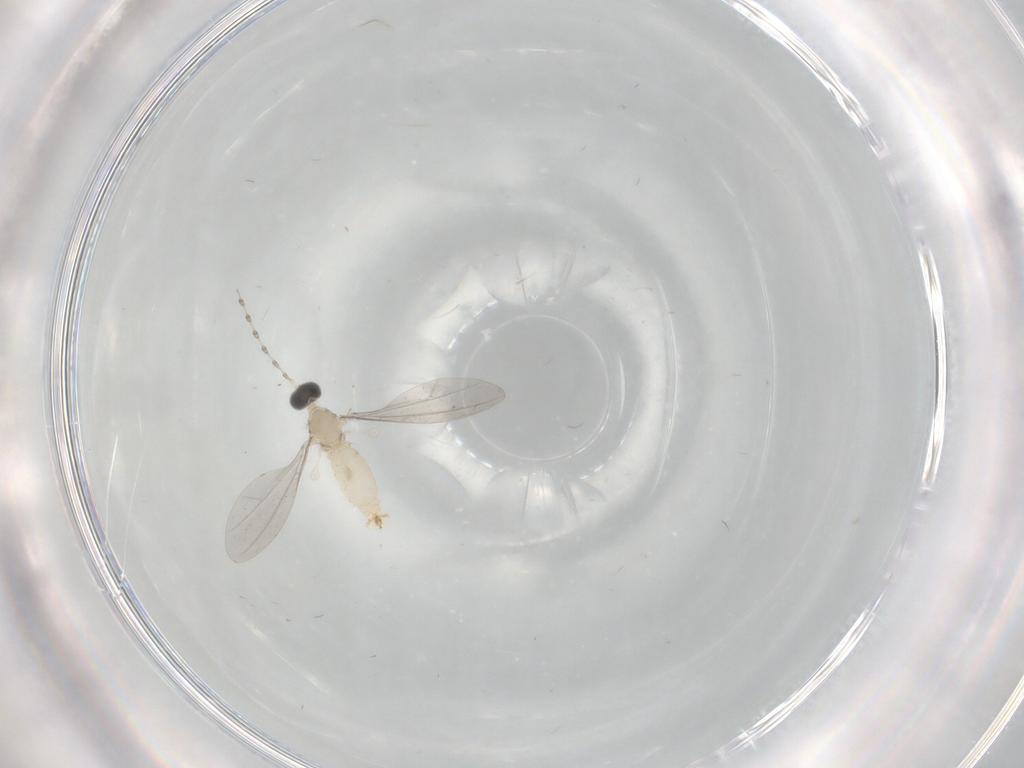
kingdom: Animalia
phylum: Arthropoda
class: Insecta
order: Diptera
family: Cecidomyiidae
